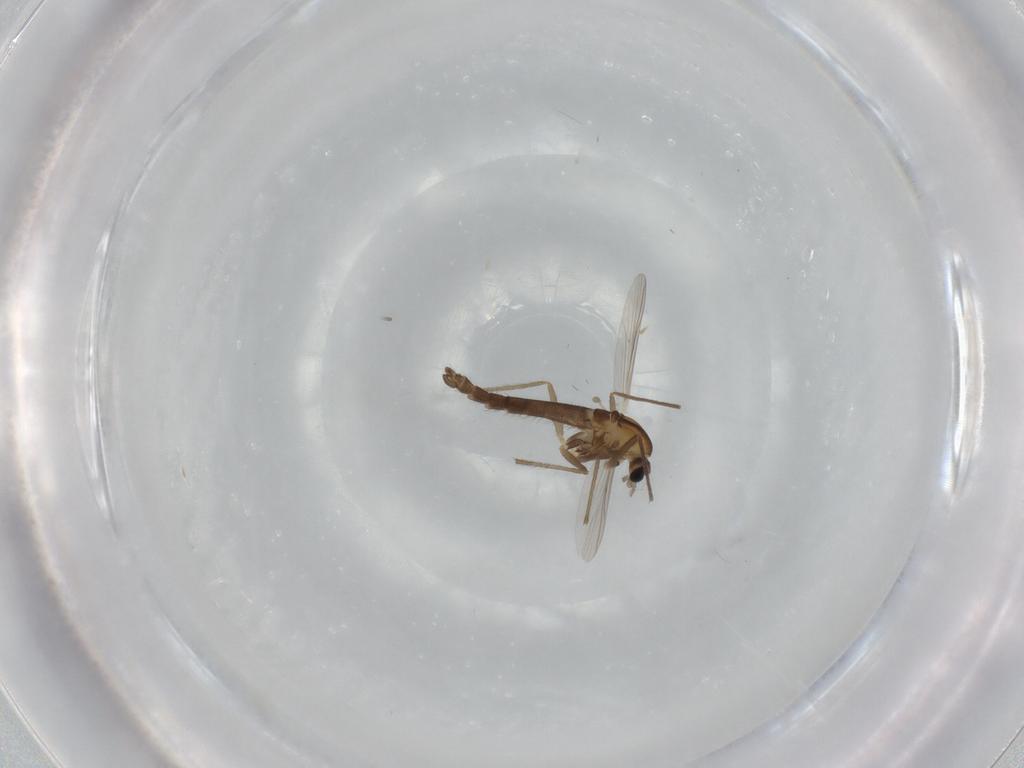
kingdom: Animalia
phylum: Arthropoda
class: Insecta
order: Diptera
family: Chironomidae
